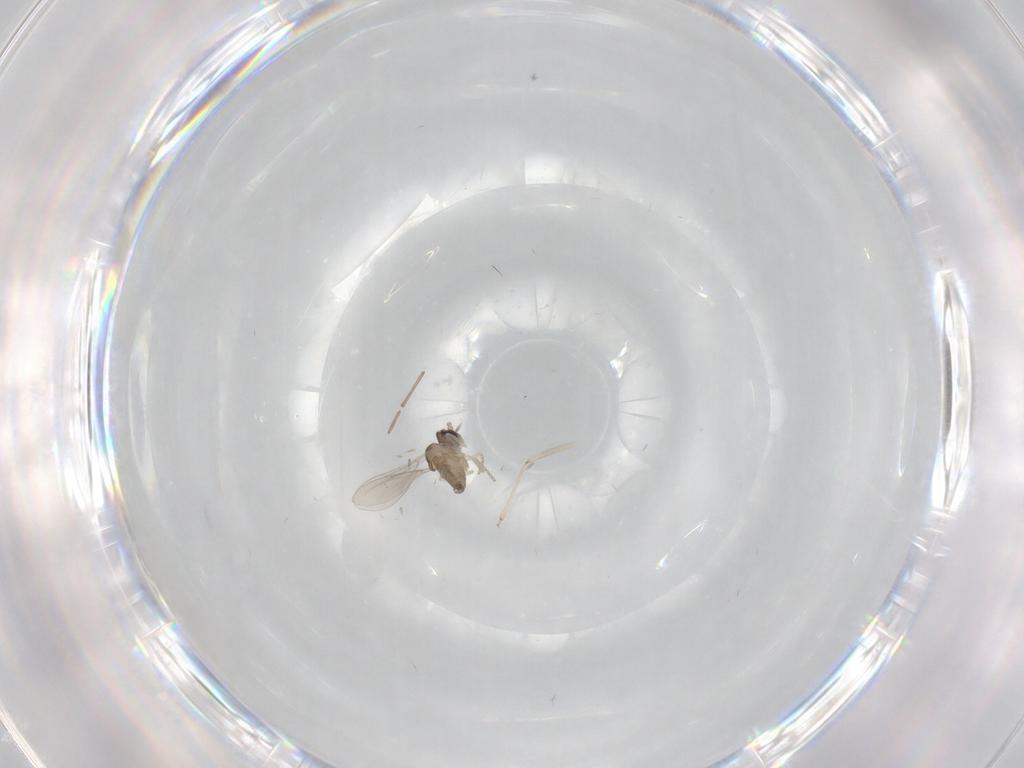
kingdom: Animalia
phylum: Arthropoda
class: Insecta
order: Diptera
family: Cecidomyiidae
